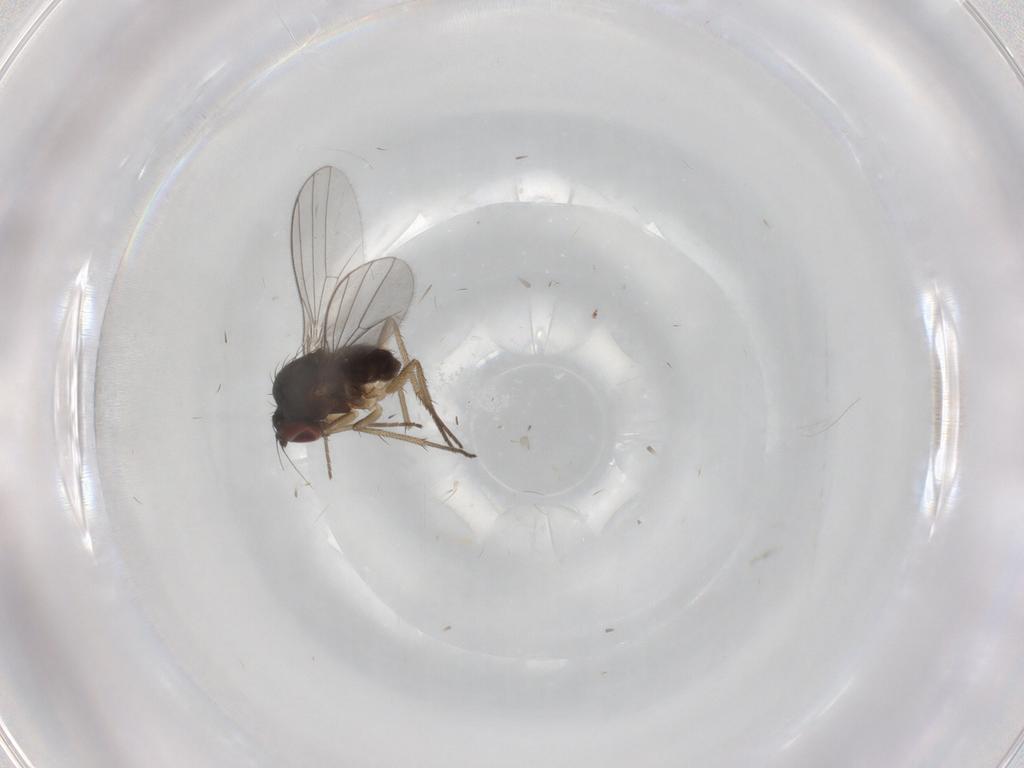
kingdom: Animalia
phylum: Arthropoda
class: Insecta
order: Diptera
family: Dolichopodidae
